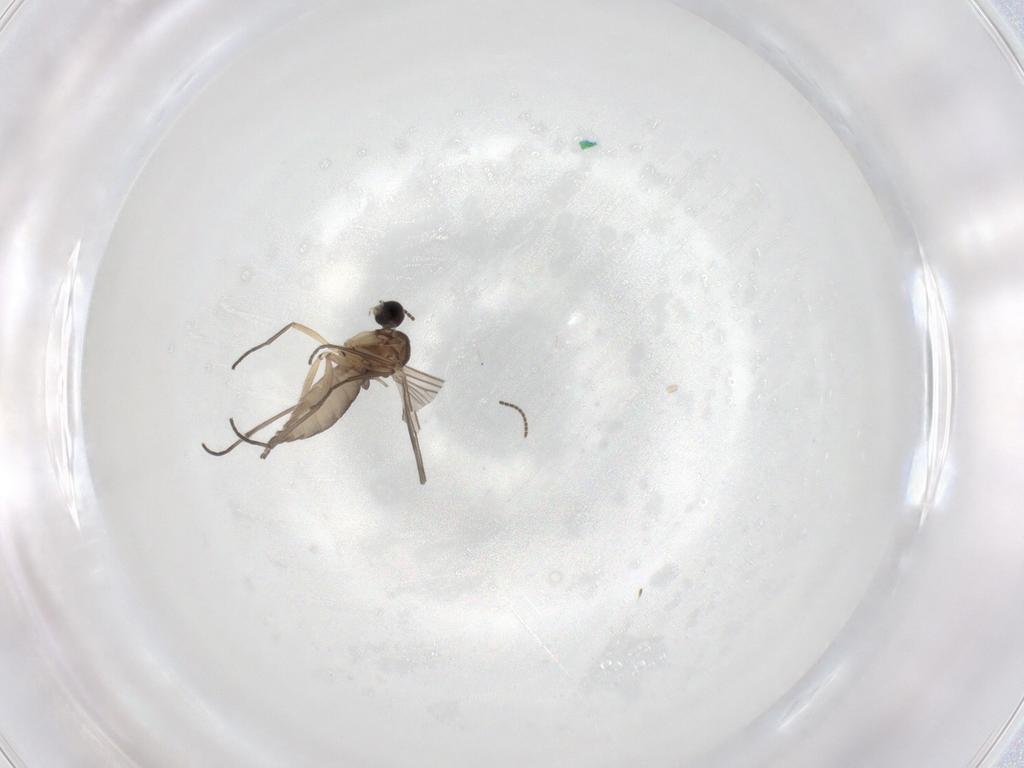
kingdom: Animalia
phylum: Arthropoda
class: Insecta
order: Diptera
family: Sciaridae
